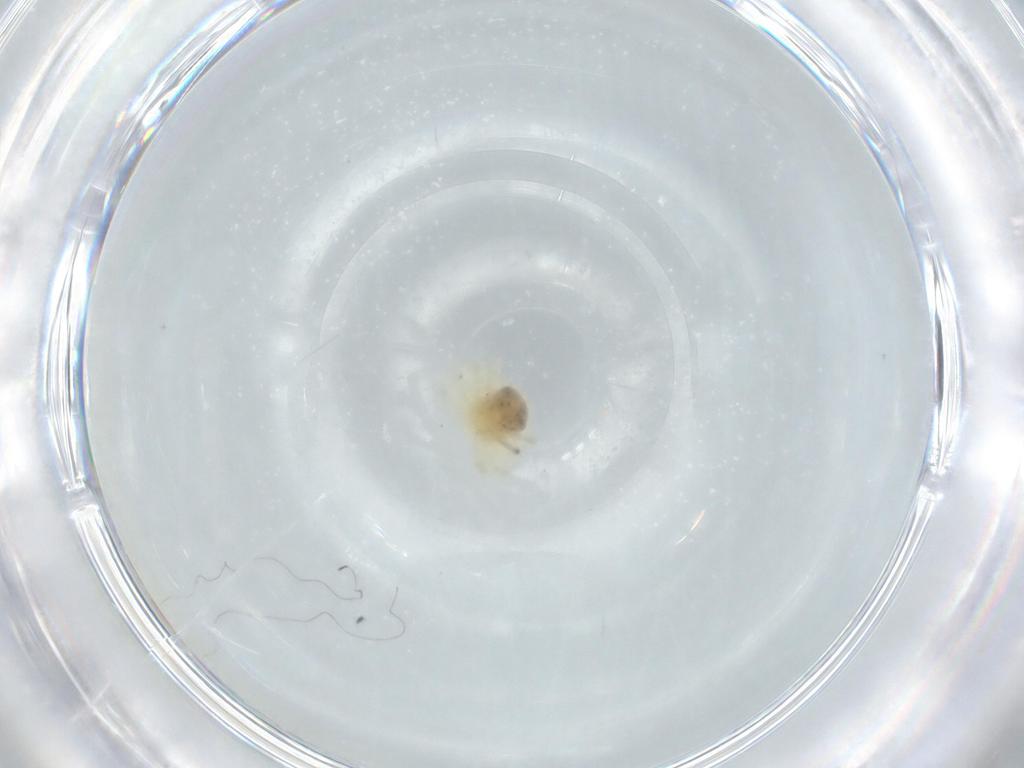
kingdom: Animalia
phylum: Arthropoda
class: Arachnida
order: Trombidiformes
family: Anystidae
